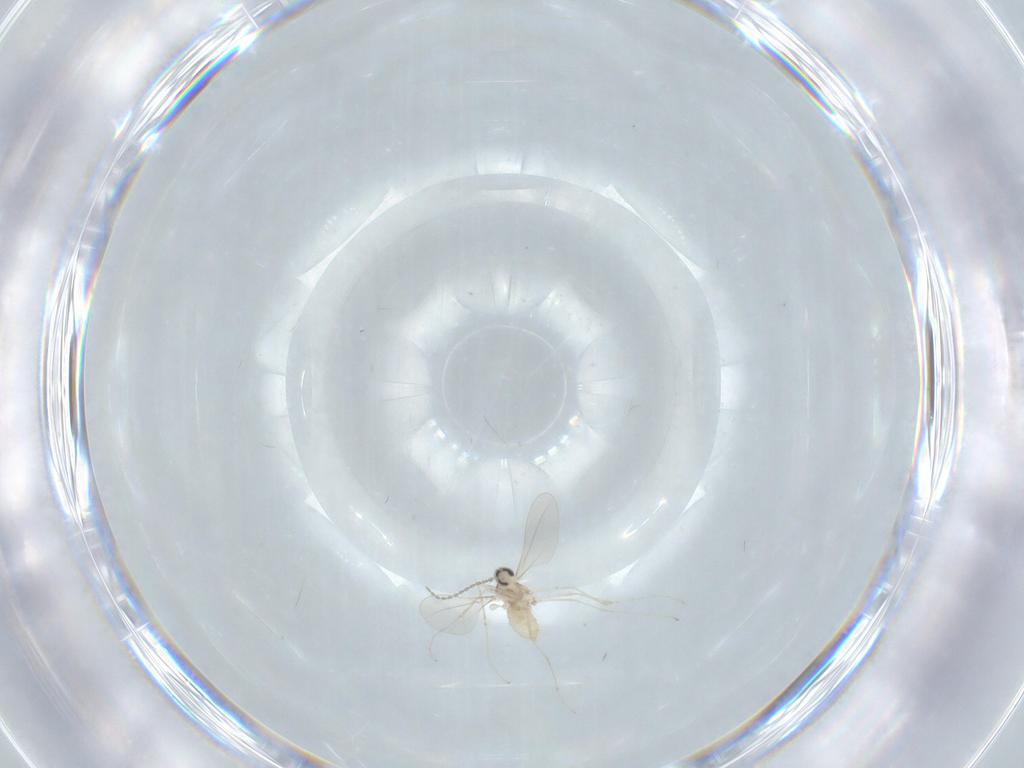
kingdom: Animalia
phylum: Arthropoda
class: Insecta
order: Diptera
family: Cecidomyiidae
